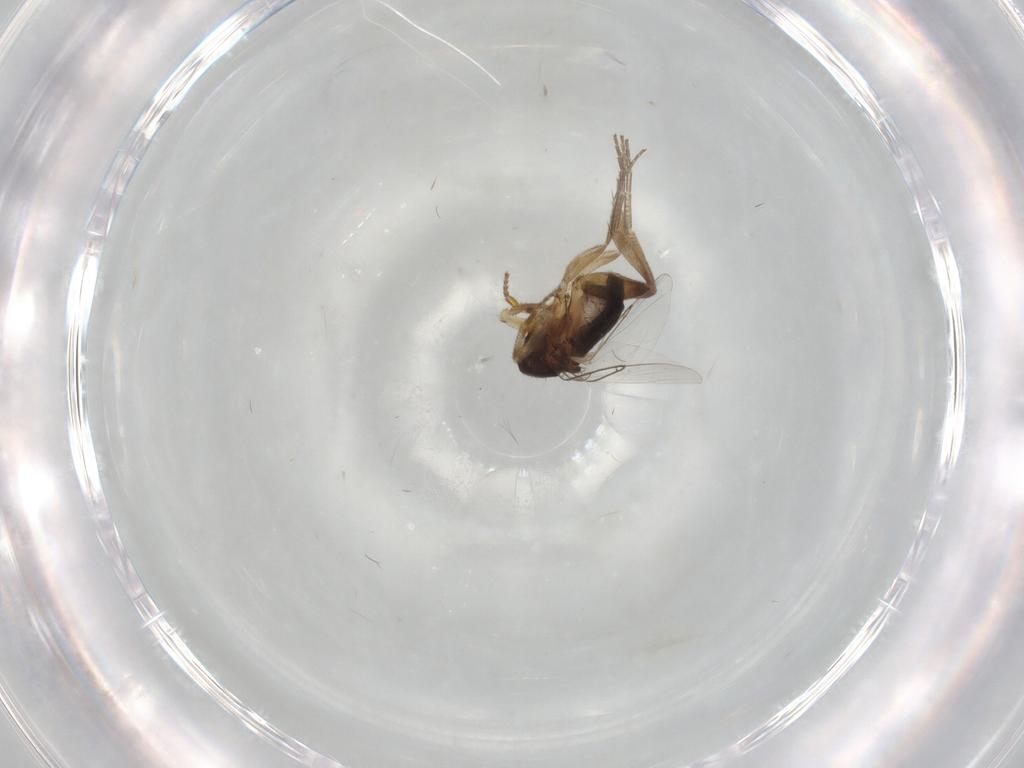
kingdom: Animalia
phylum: Arthropoda
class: Insecta
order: Diptera
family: Phoridae
